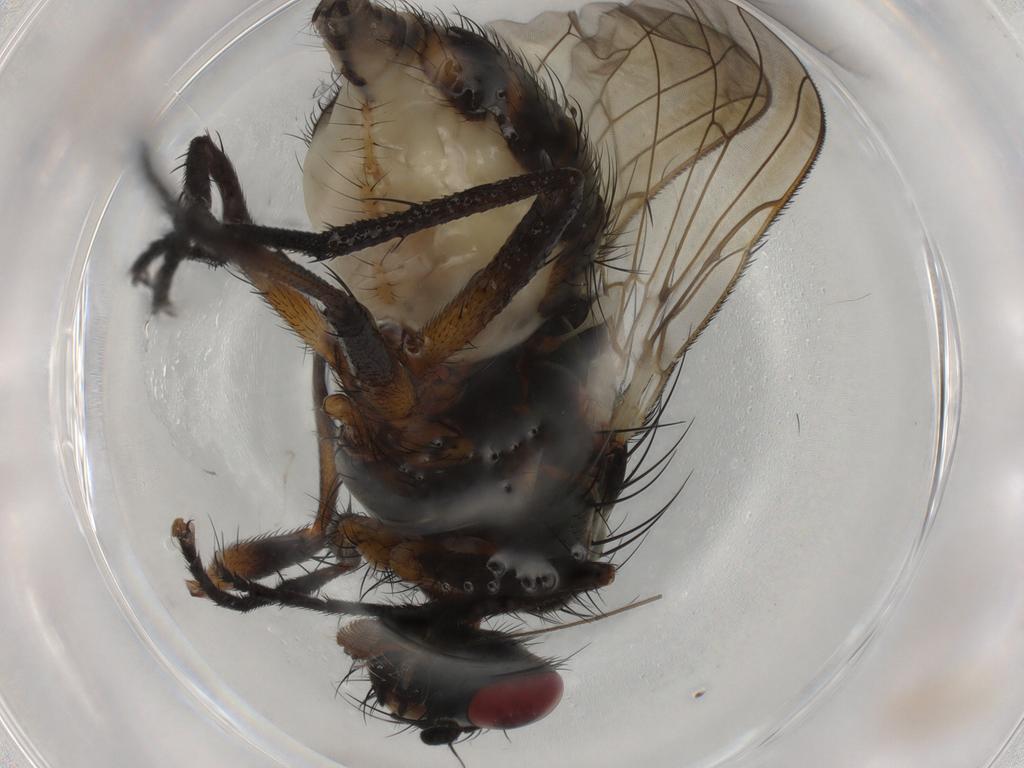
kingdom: Animalia
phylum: Arthropoda
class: Insecta
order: Diptera
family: Anthomyiidae
